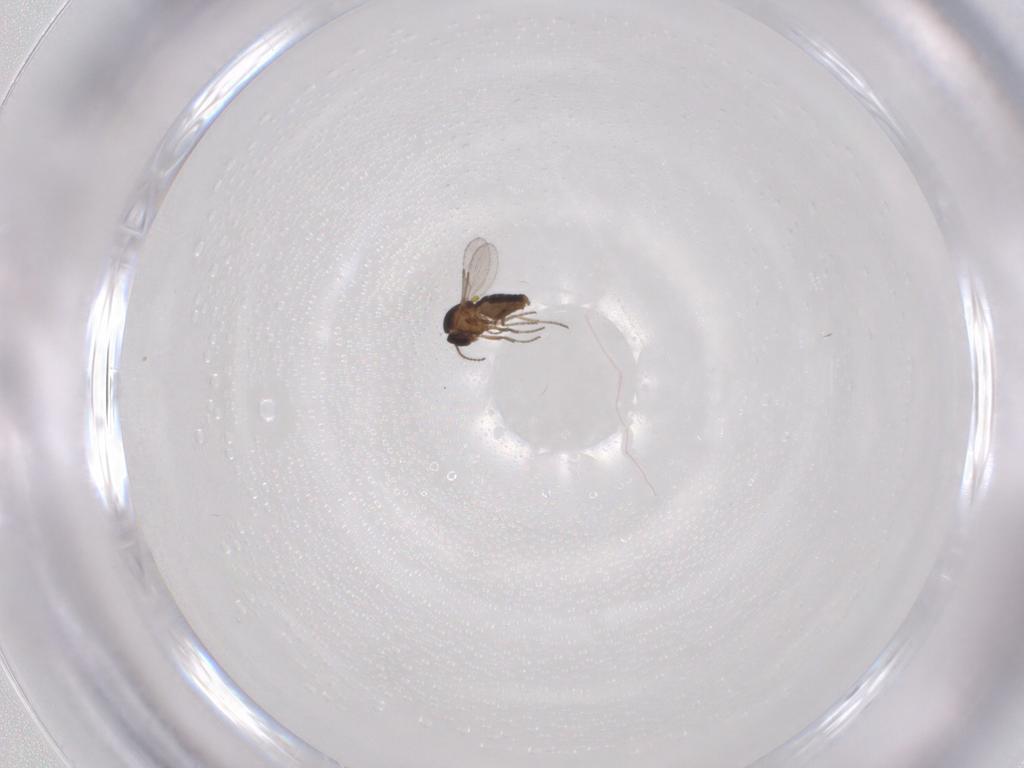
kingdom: Animalia
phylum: Arthropoda
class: Insecta
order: Diptera
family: Ceratopogonidae
